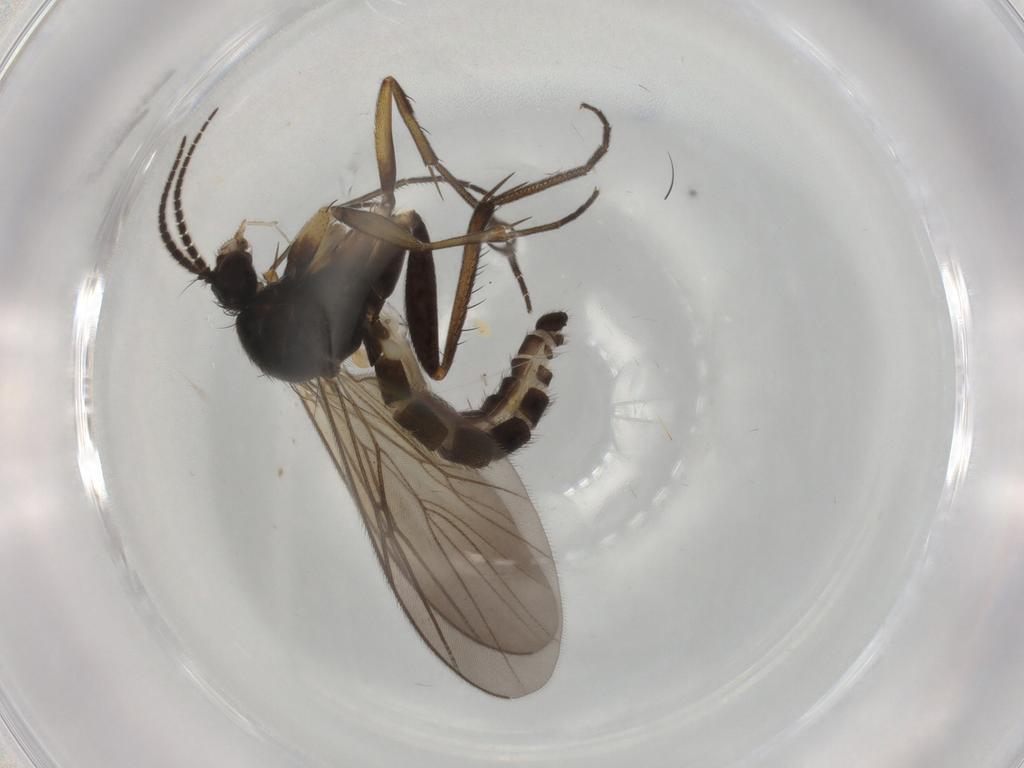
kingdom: Animalia
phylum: Arthropoda
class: Insecta
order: Diptera
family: Mycetophilidae
